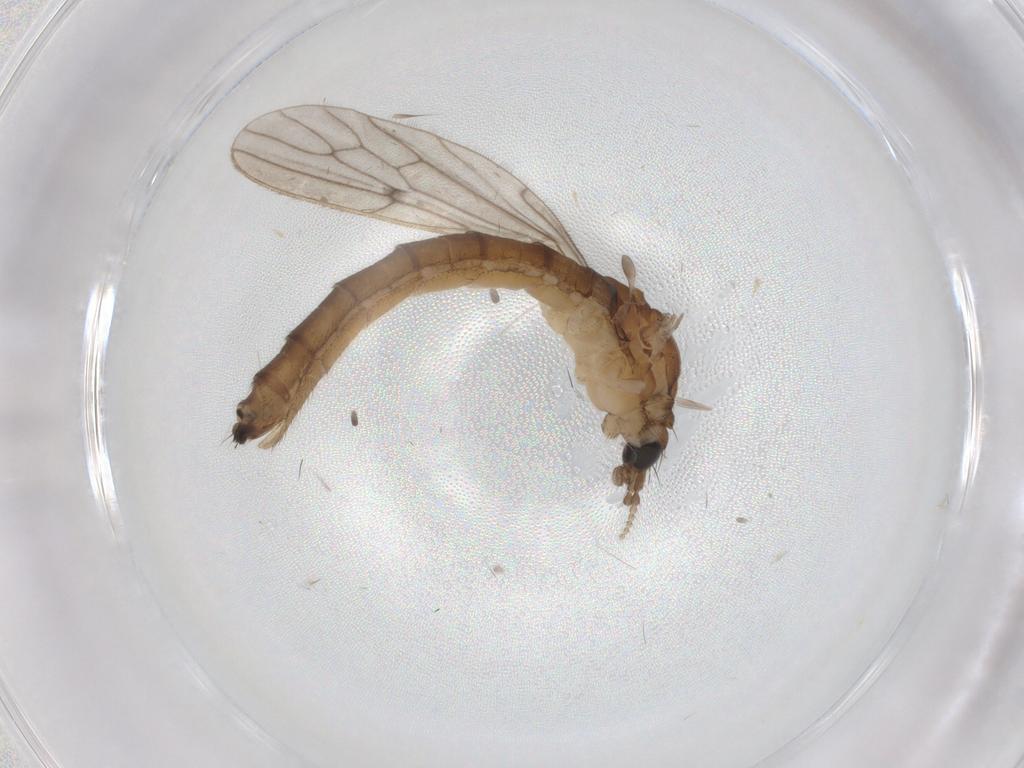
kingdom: Animalia
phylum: Arthropoda
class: Insecta
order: Diptera
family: Limoniidae
